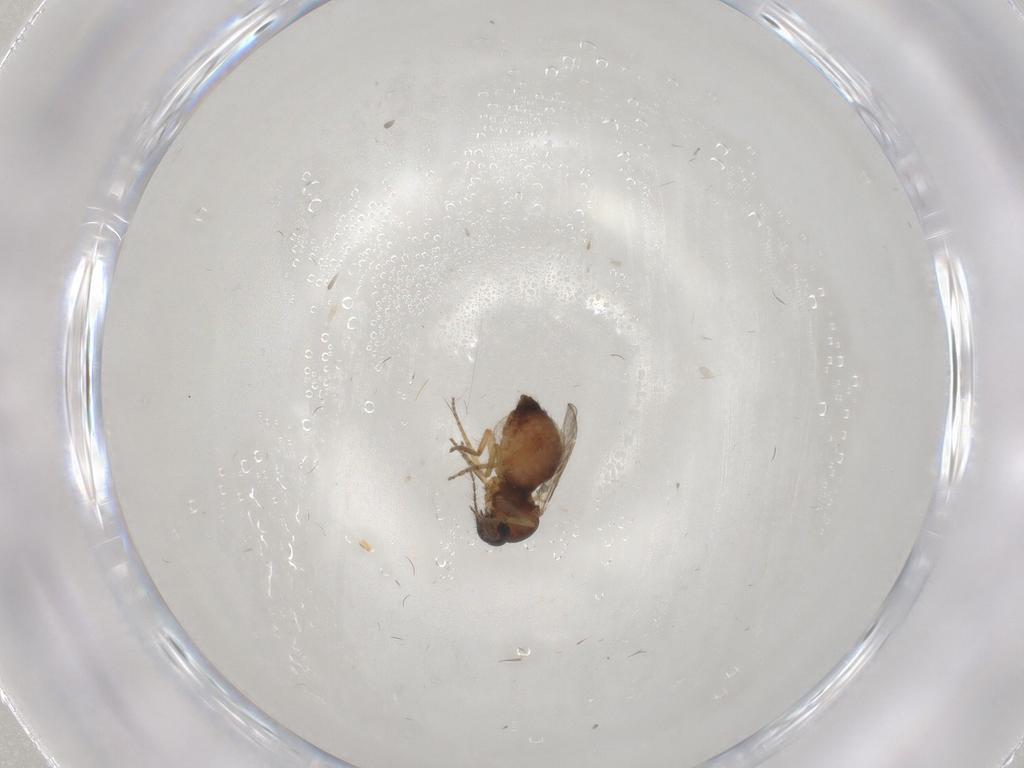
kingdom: Animalia
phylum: Arthropoda
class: Insecta
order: Diptera
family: Ceratopogonidae
